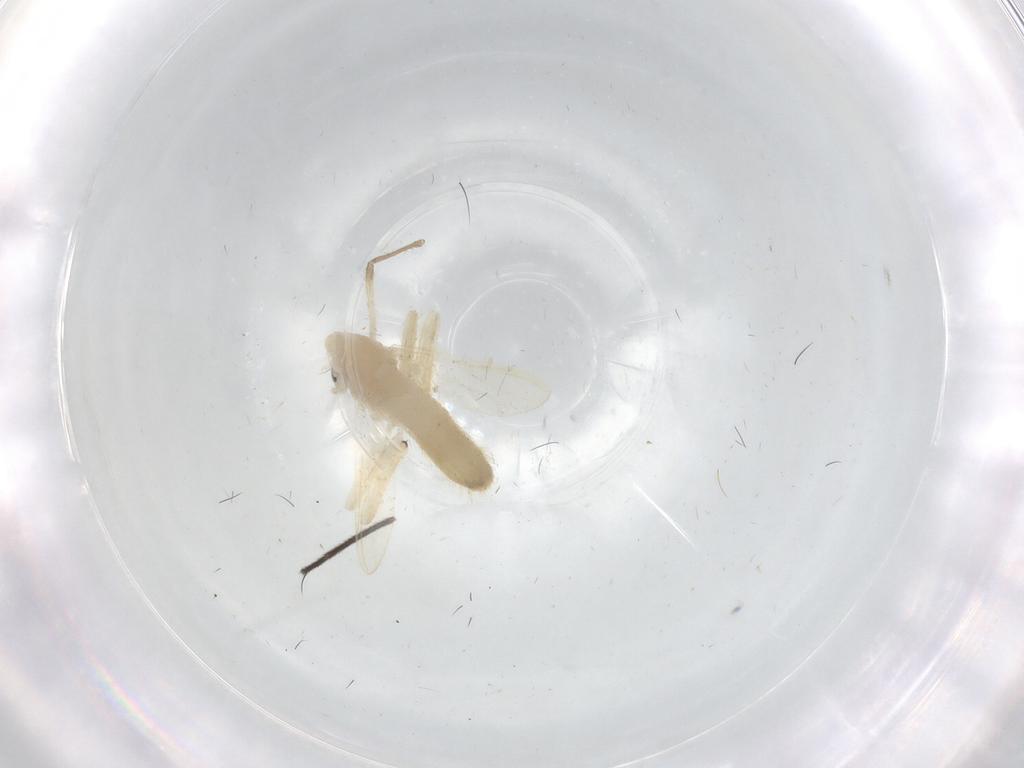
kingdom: Animalia
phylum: Arthropoda
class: Insecta
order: Diptera
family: Chironomidae
